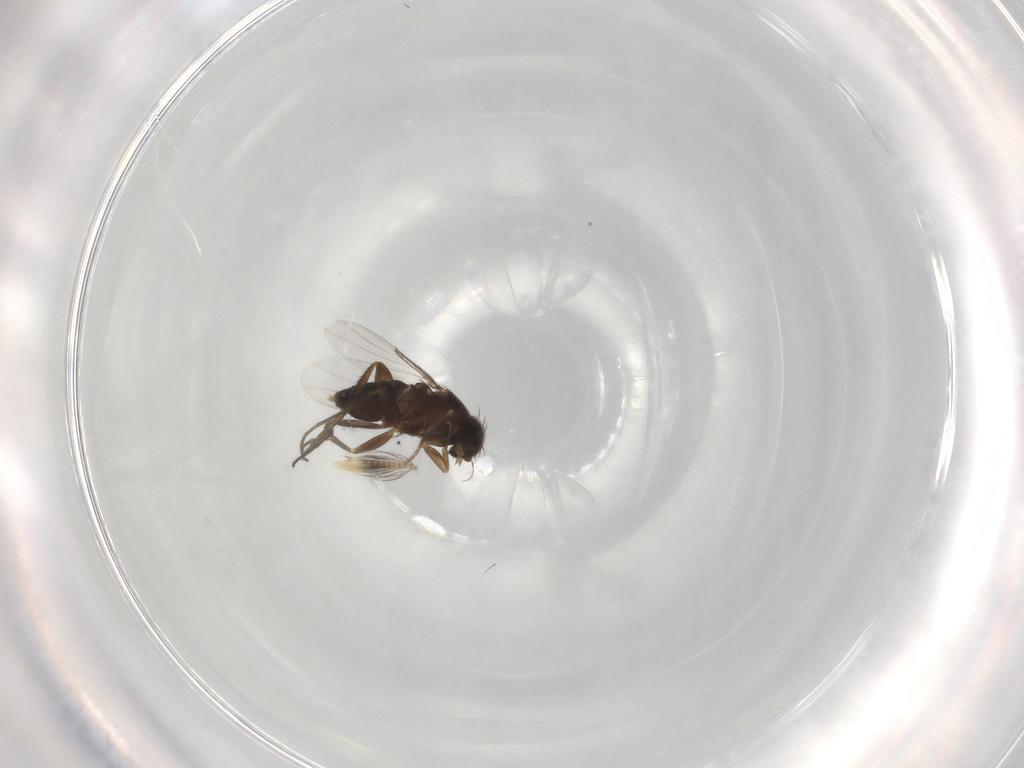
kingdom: Animalia
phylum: Arthropoda
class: Insecta
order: Diptera
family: Phoridae
